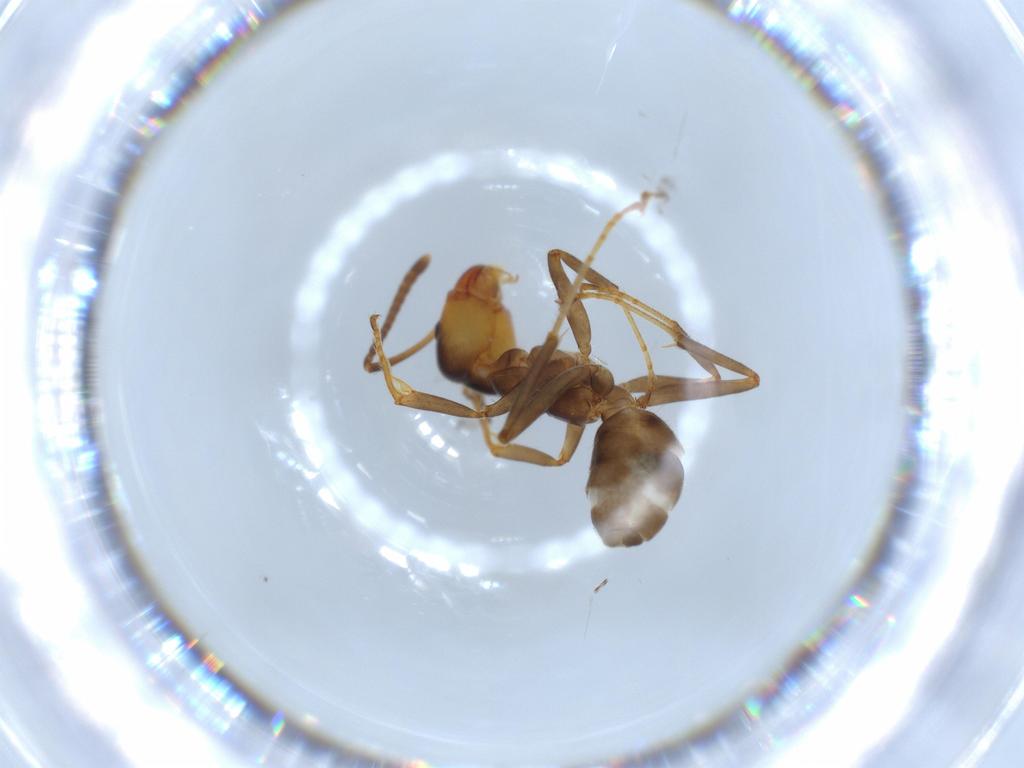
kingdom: Animalia
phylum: Arthropoda
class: Insecta
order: Hymenoptera
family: Formicidae
